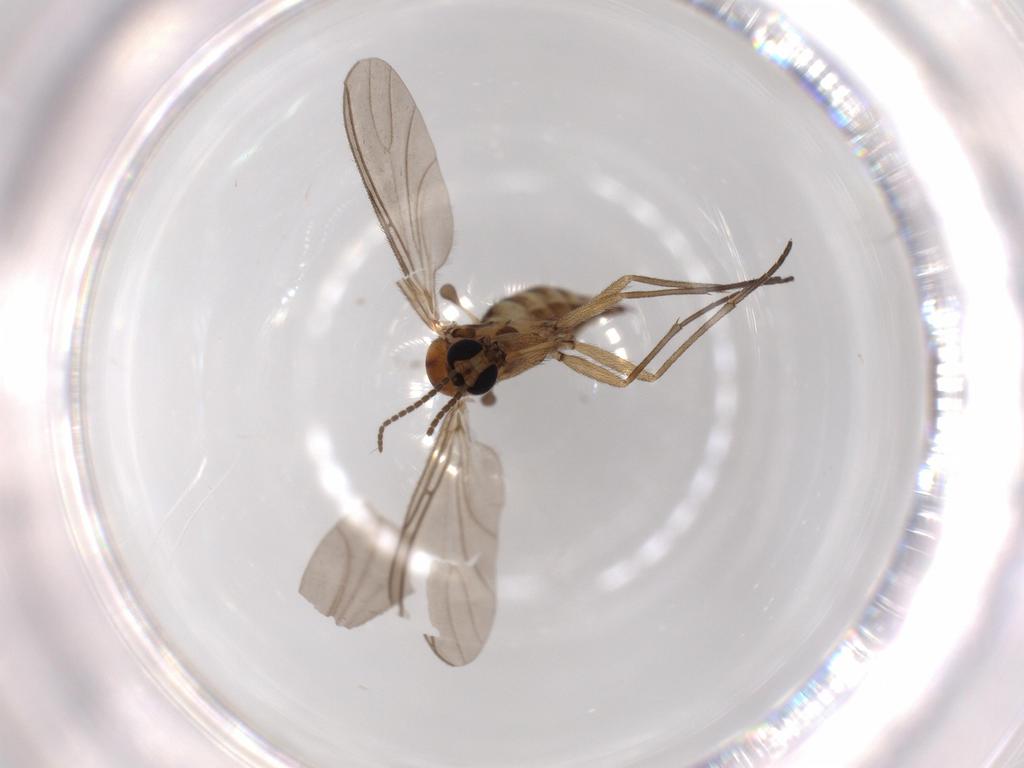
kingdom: Animalia
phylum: Arthropoda
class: Insecta
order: Diptera
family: Sciaridae
